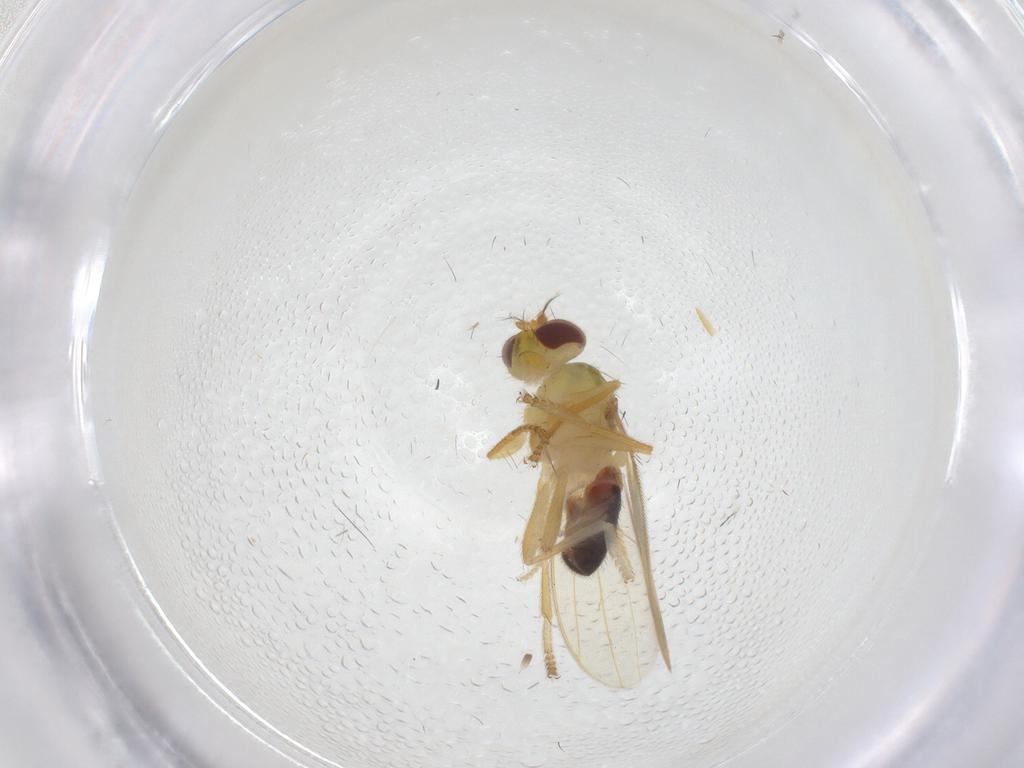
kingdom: Animalia
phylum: Arthropoda
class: Insecta
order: Diptera
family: Periscelididae
